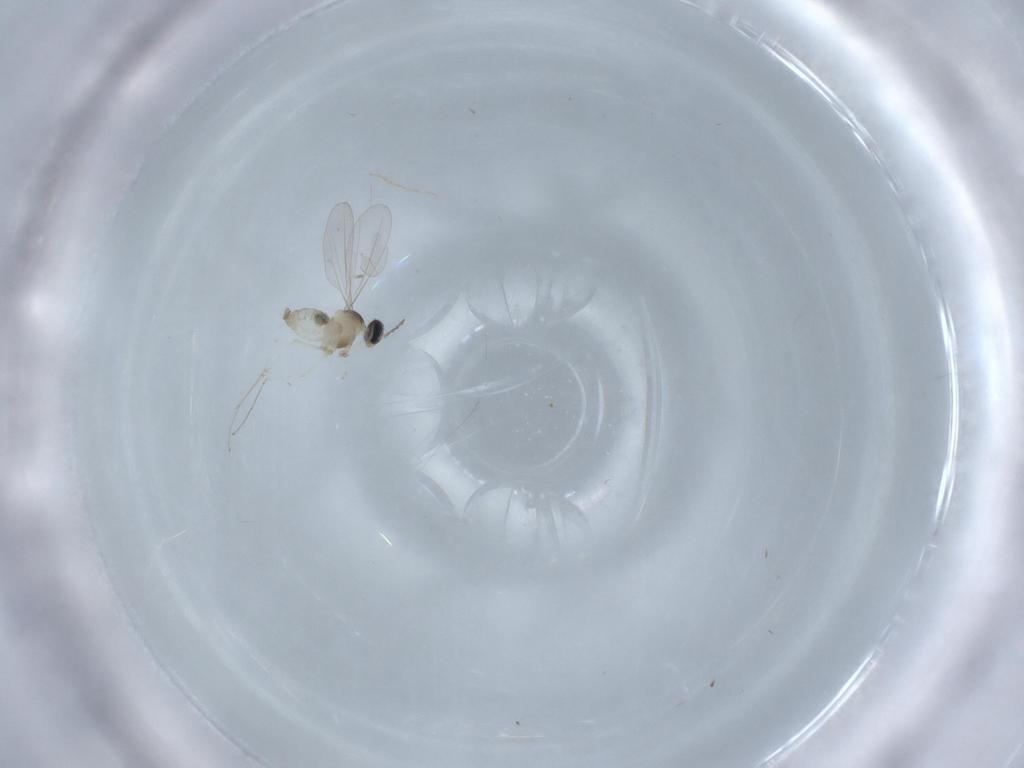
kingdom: Animalia
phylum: Arthropoda
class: Insecta
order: Diptera
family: Cecidomyiidae
